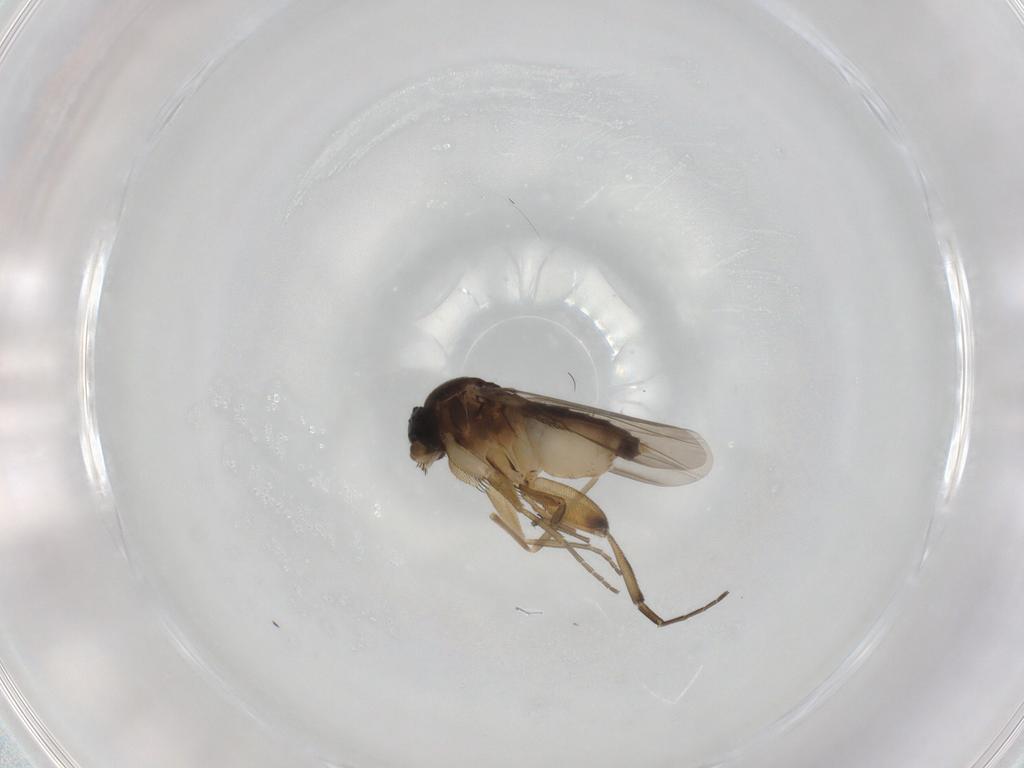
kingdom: Animalia
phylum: Arthropoda
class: Insecta
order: Diptera
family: Phoridae
